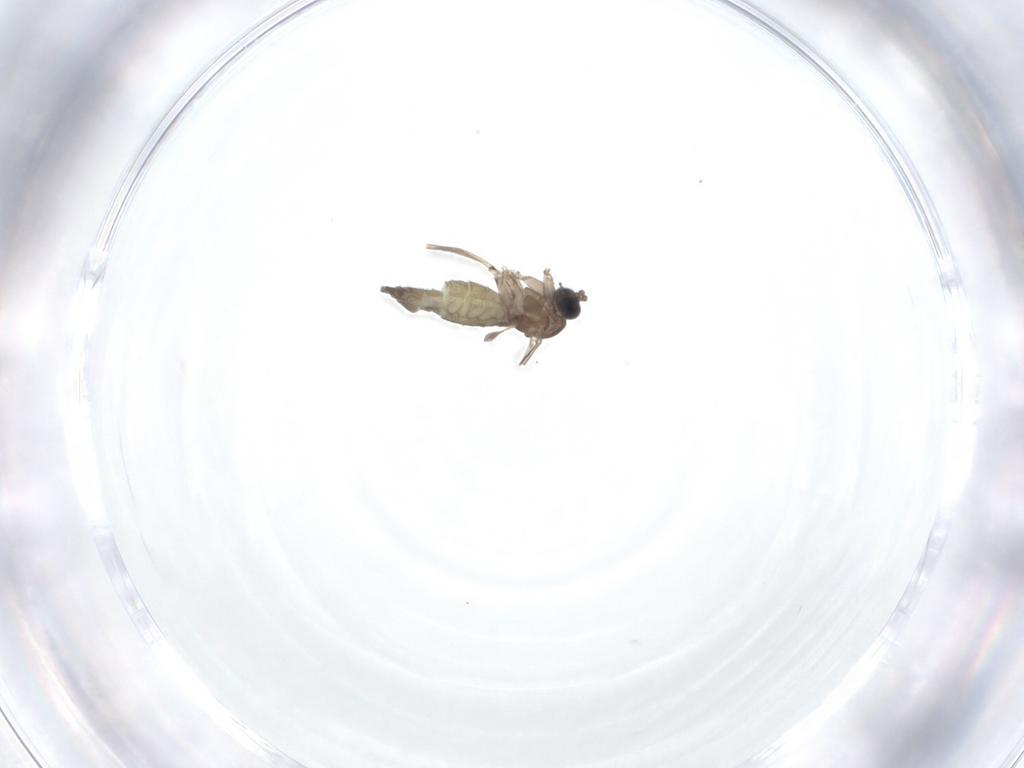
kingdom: Animalia
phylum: Arthropoda
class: Insecta
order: Diptera
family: Sciaridae
